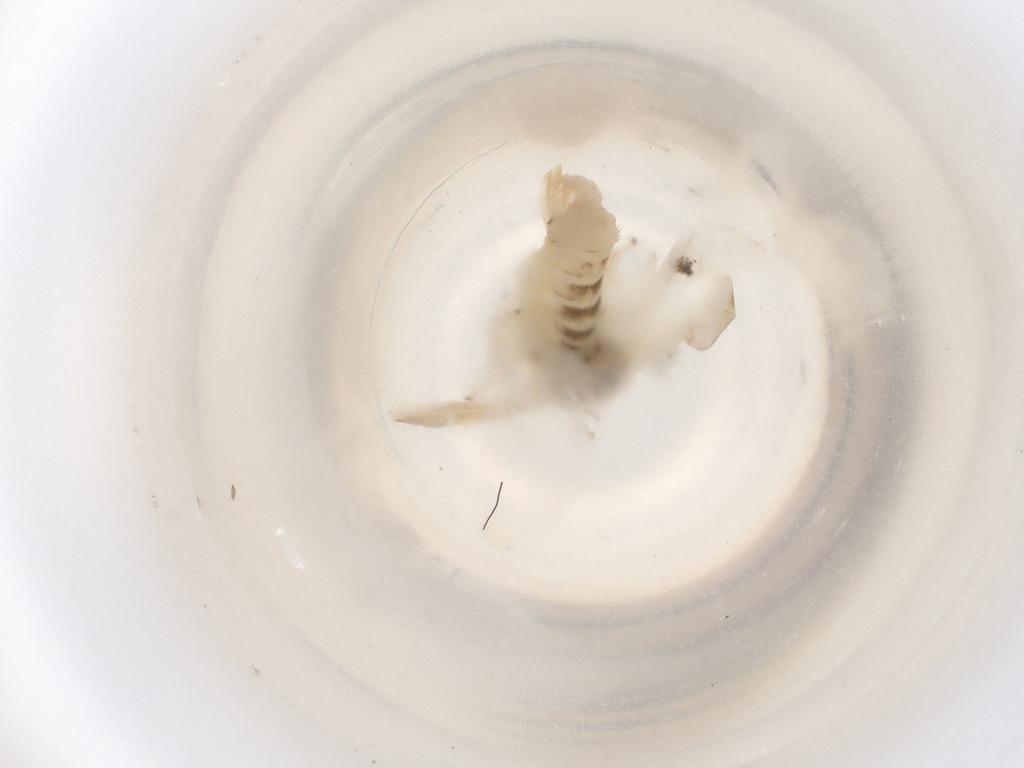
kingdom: Animalia
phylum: Arthropoda
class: Insecta
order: Hemiptera
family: Cicadellidae
